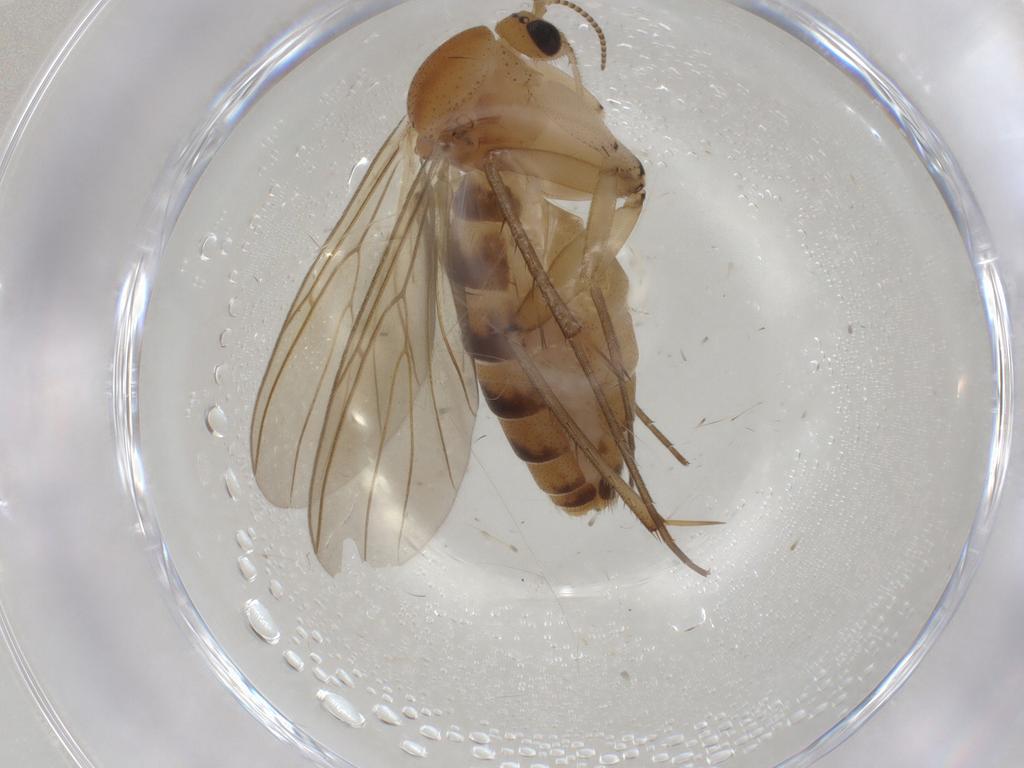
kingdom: Animalia
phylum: Arthropoda
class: Insecta
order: Diptera
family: Mycetophilidae
